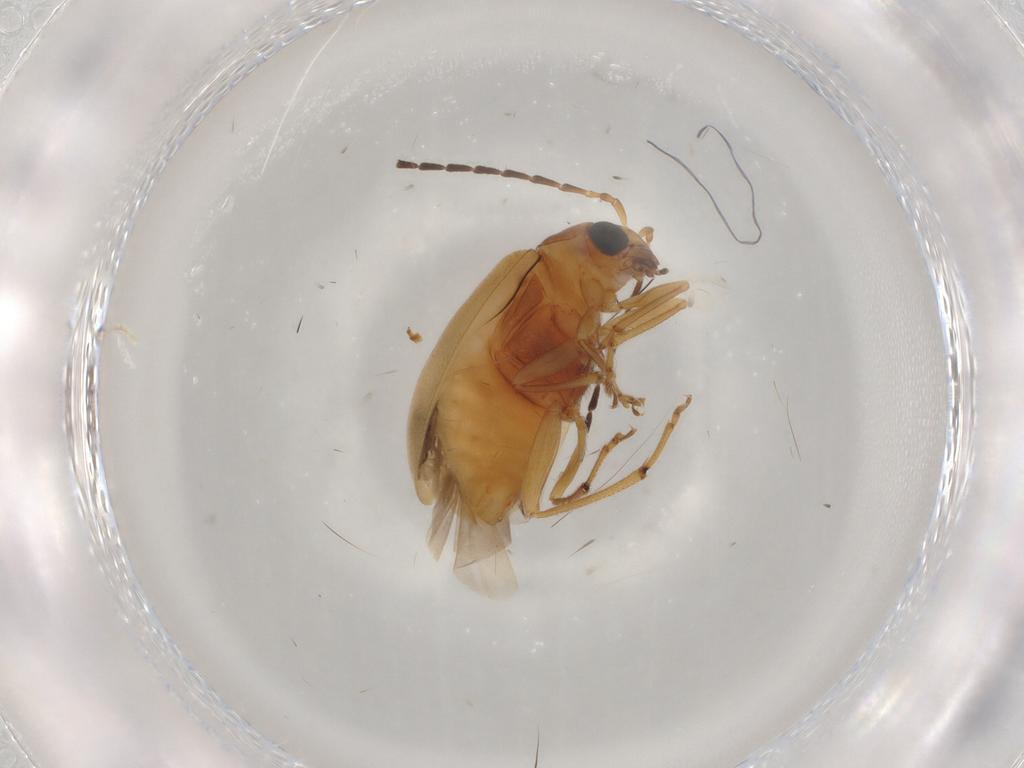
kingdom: Animalia
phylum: Arthropoda
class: Insecta
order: Coleoptera
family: Chrysomelidae
